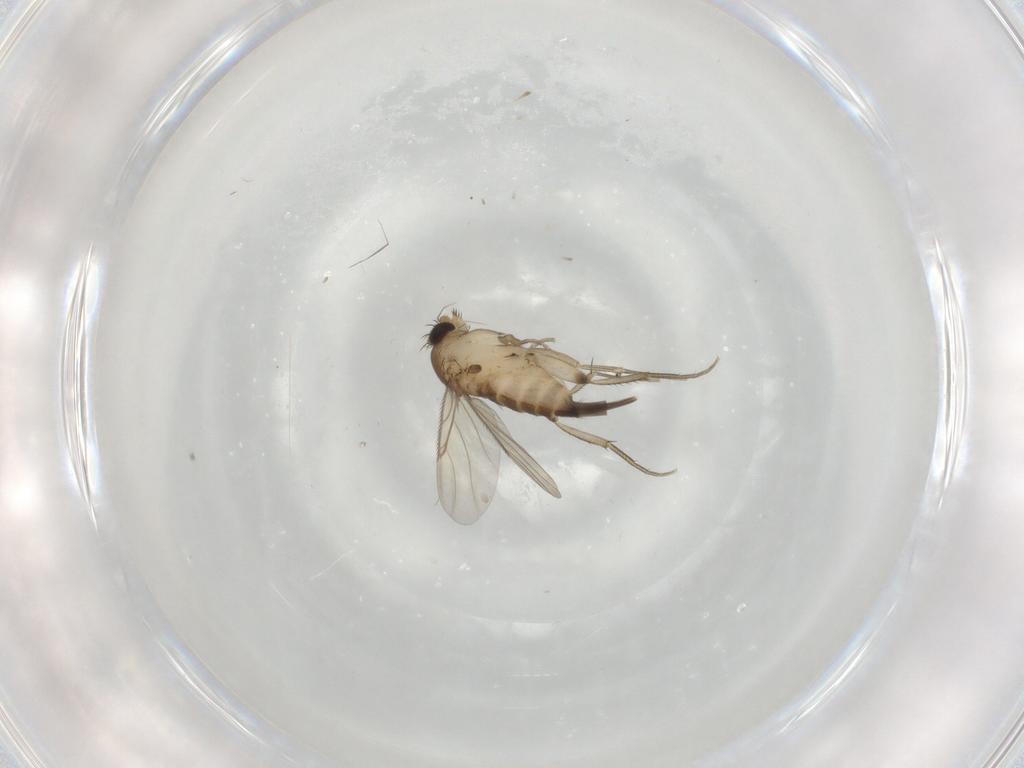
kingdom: Animalia
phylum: Arthropoda
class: Insecta
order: Diptera
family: Phoridae
